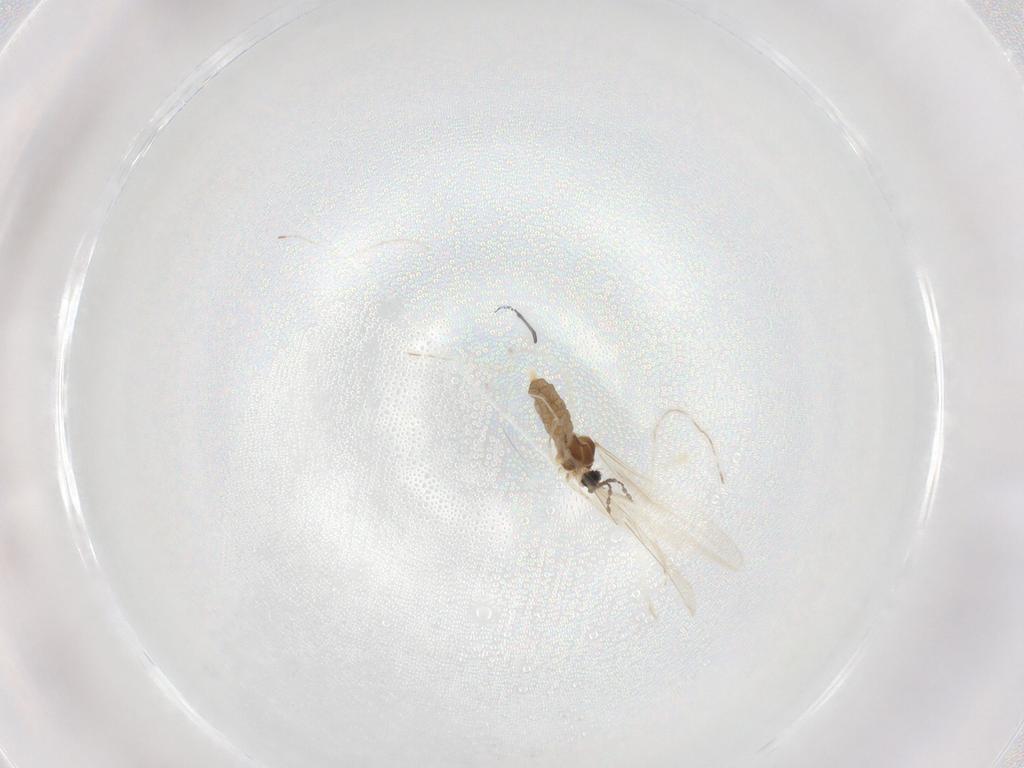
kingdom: Animalia
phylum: Arthropoda
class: Insecta
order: Diptera
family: Cecidomyiidae
